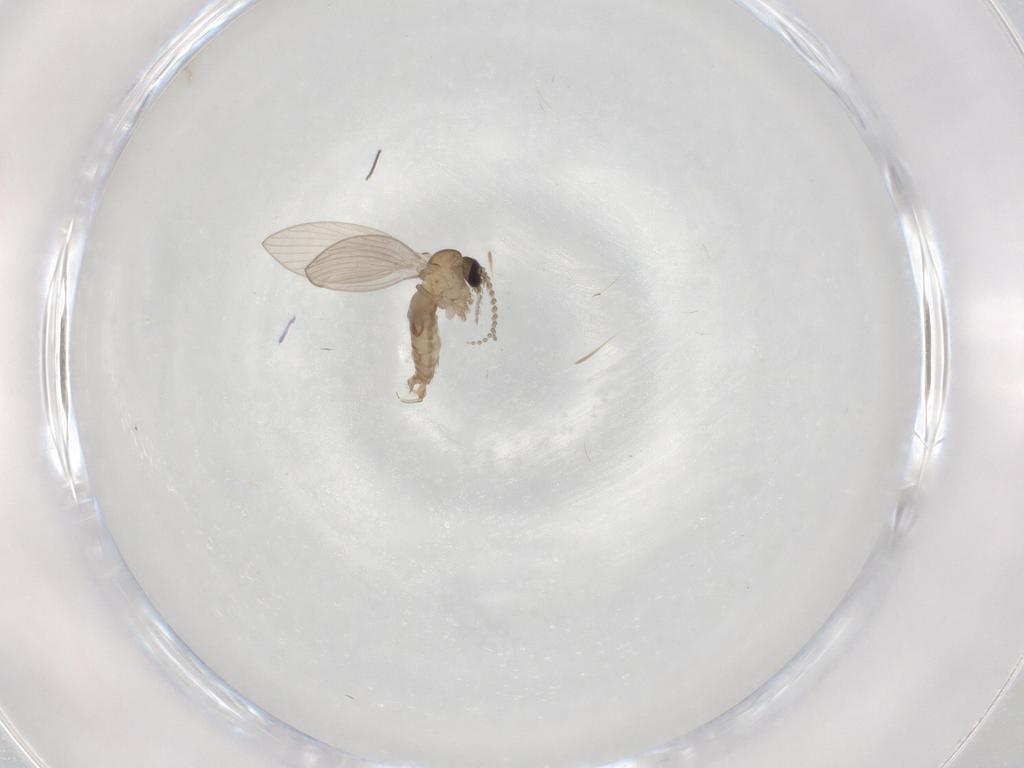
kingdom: Animalia
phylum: Arthropoda
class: Insecta
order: Diptera
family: Psychodidae
